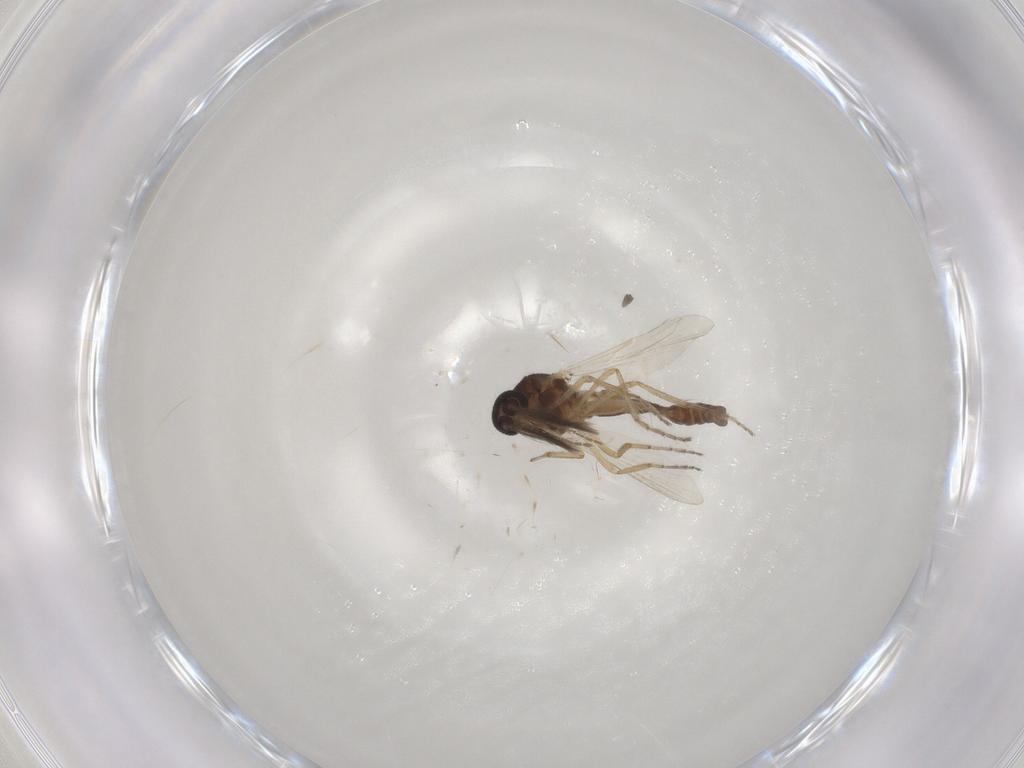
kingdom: Animalia
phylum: Arthropoda
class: Insecta
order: Diptera
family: Ceratopogonidae
